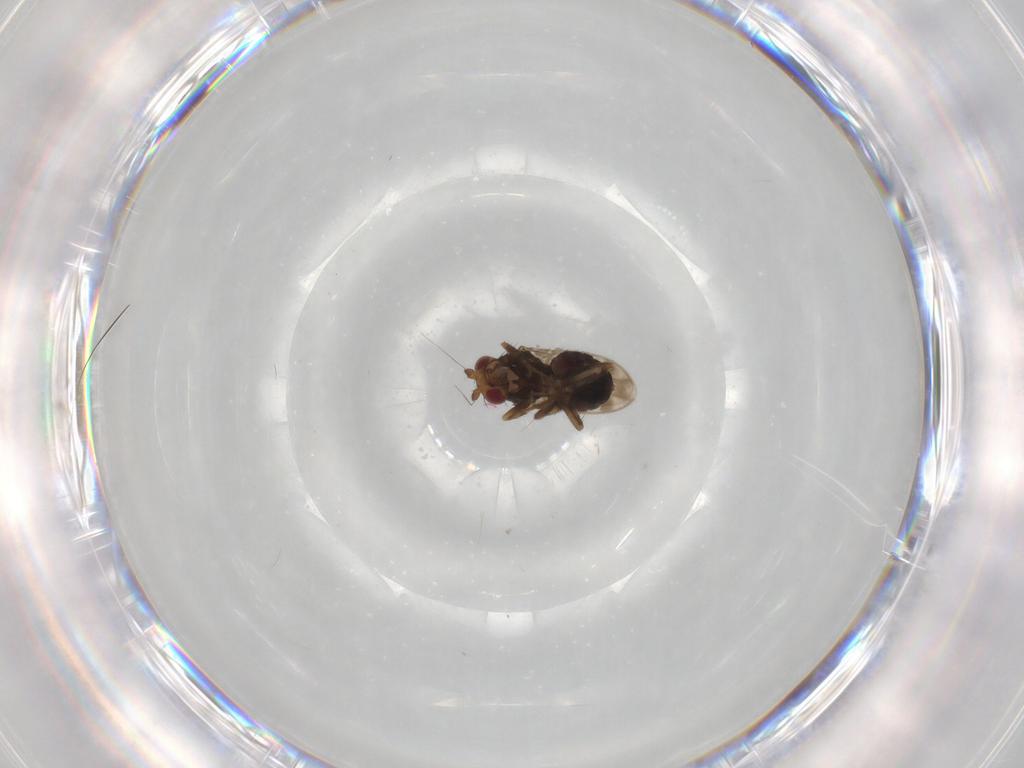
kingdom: Animalia
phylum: Arthropoda
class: Insecta
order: Diptera
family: Sphaeroceridae
